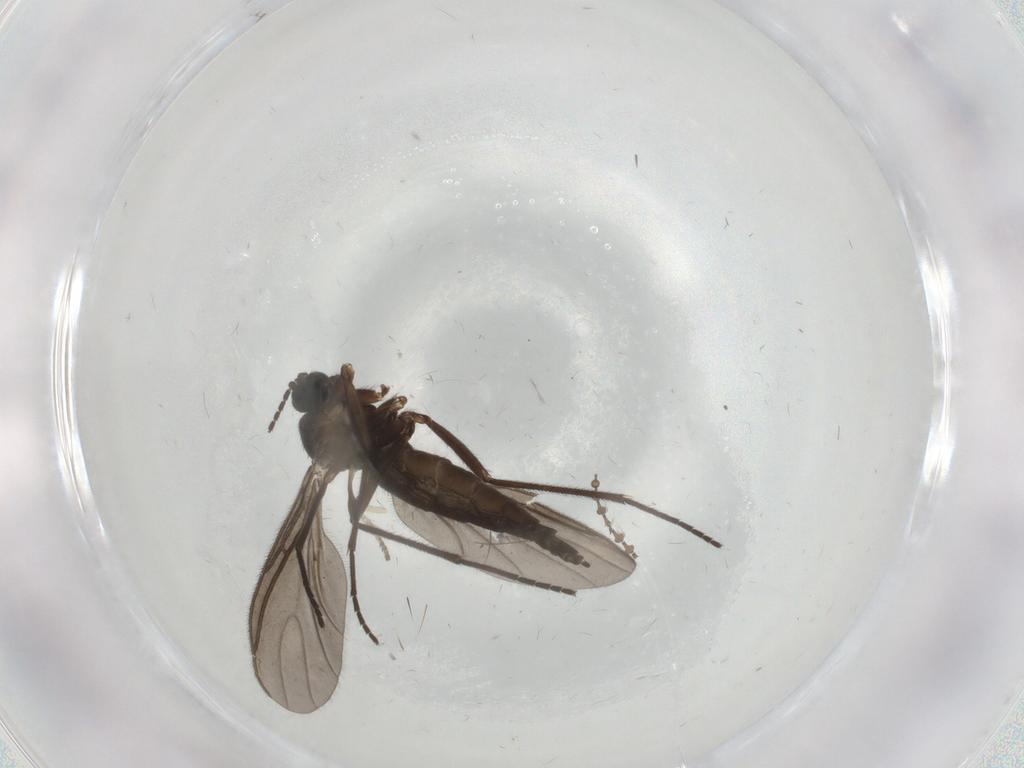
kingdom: Animalia
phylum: Arthropoda
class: Insecta
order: Diptera
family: Sciaridae
